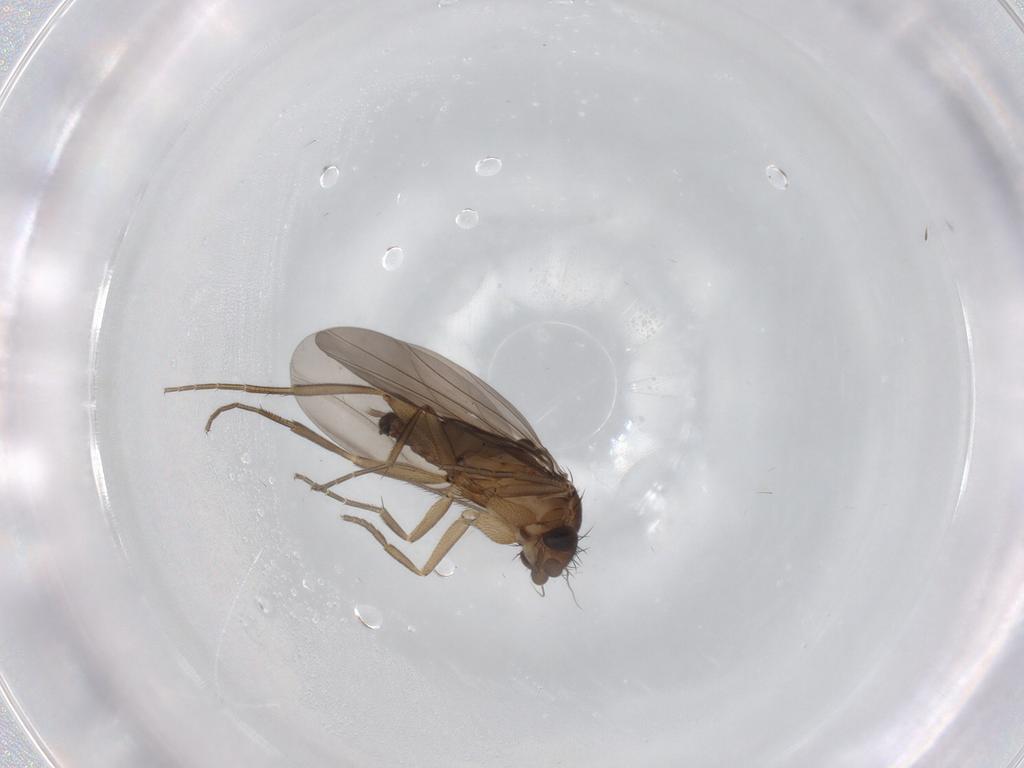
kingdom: Animalia
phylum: Arthropoda
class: Insecta
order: Diptera
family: Phoridae
